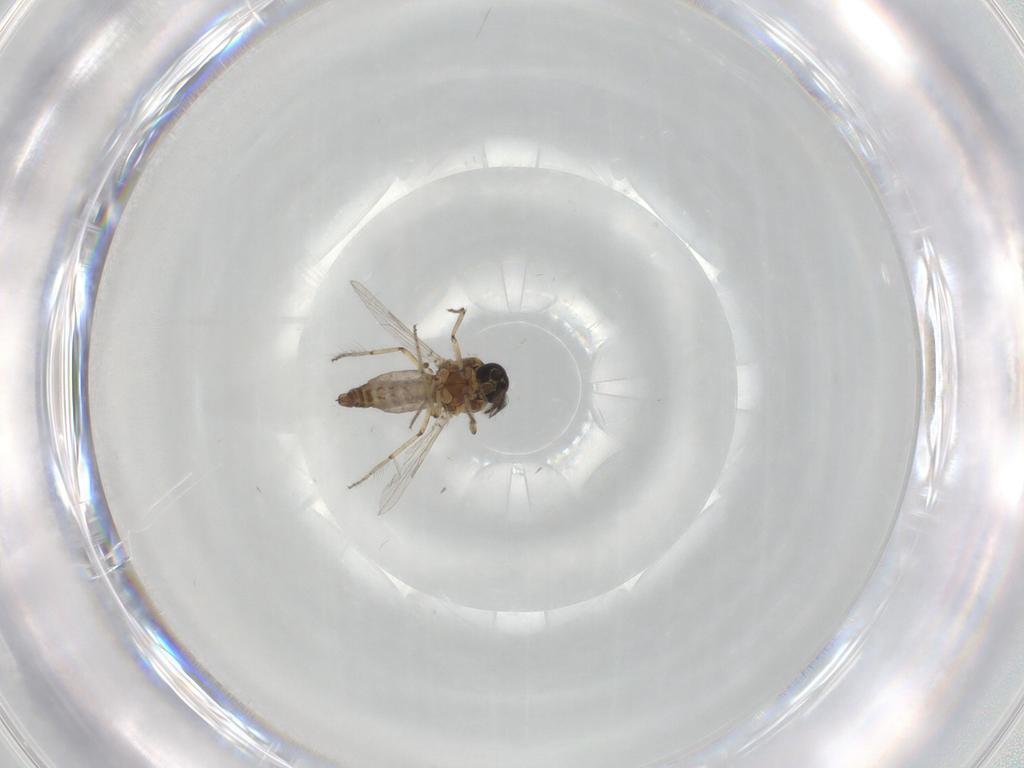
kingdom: Animalia
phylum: Arthropoda
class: Insecta
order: Diptera
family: Ceratopogonidae
